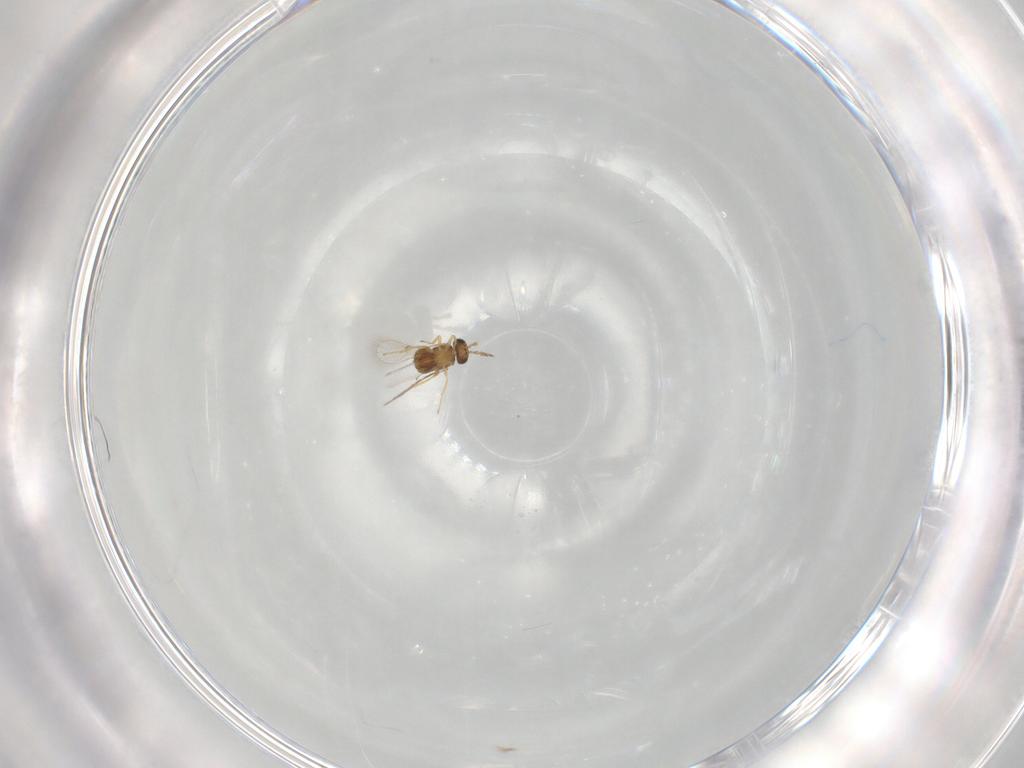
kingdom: Animalia
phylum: Arthropoda
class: Insecta
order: Hymenoptera
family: Trichogrammatidae
